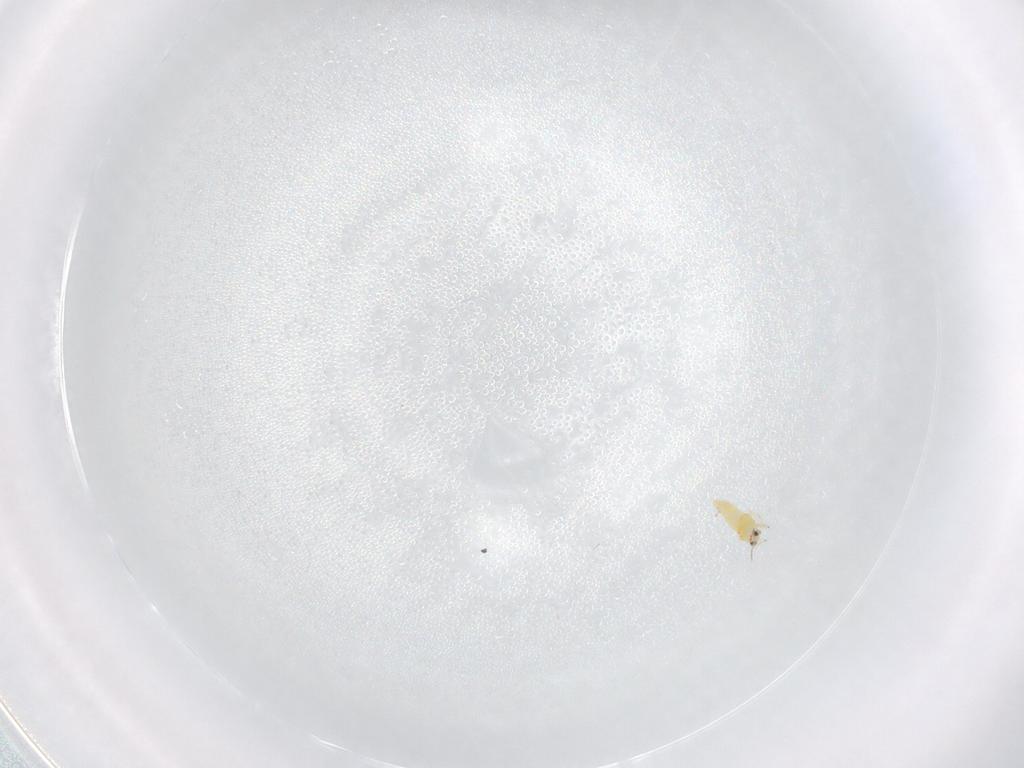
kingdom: Animalia
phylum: Arthropoda
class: Insecta
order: Thysanoptera
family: Thripidae
